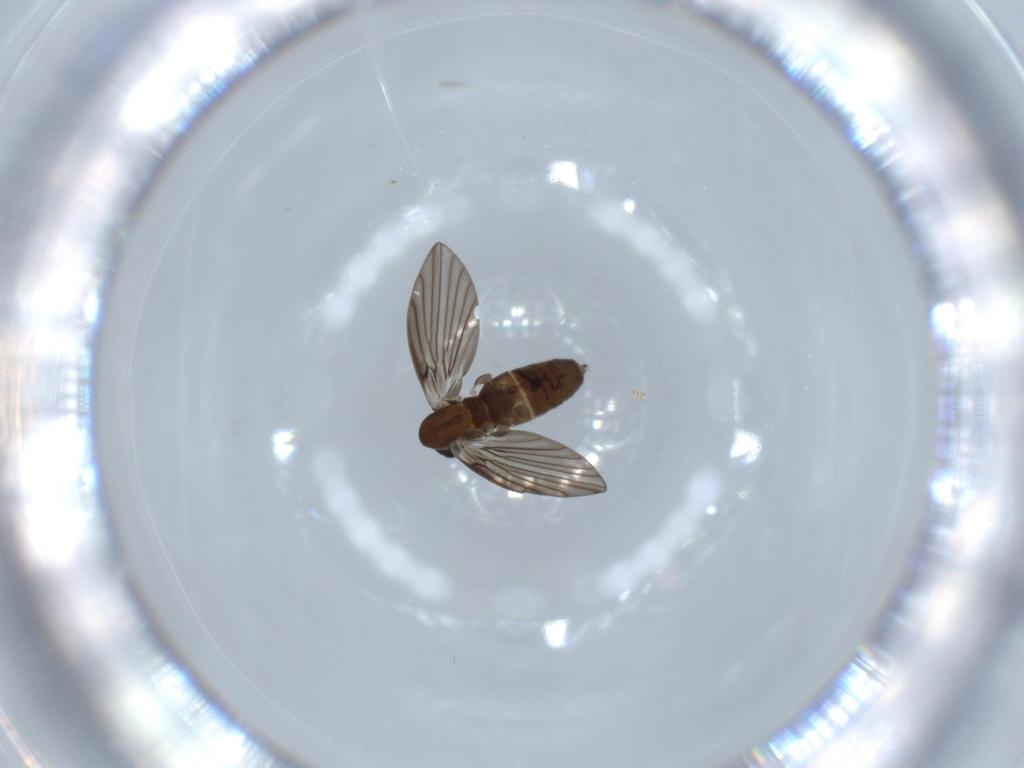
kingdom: Animalia
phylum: Arthropoda
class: Insecta
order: Diptera
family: Psychodidae
